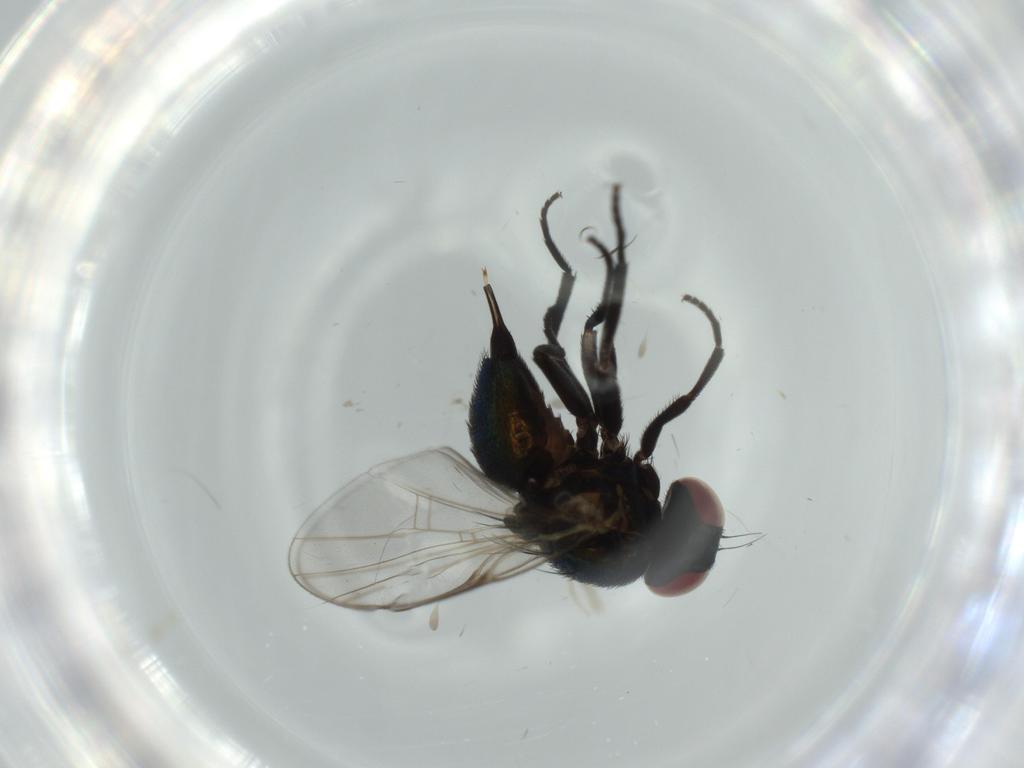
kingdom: Animalia
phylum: Arthropoda
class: Insecta
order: Diptera
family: Agromyzidae
